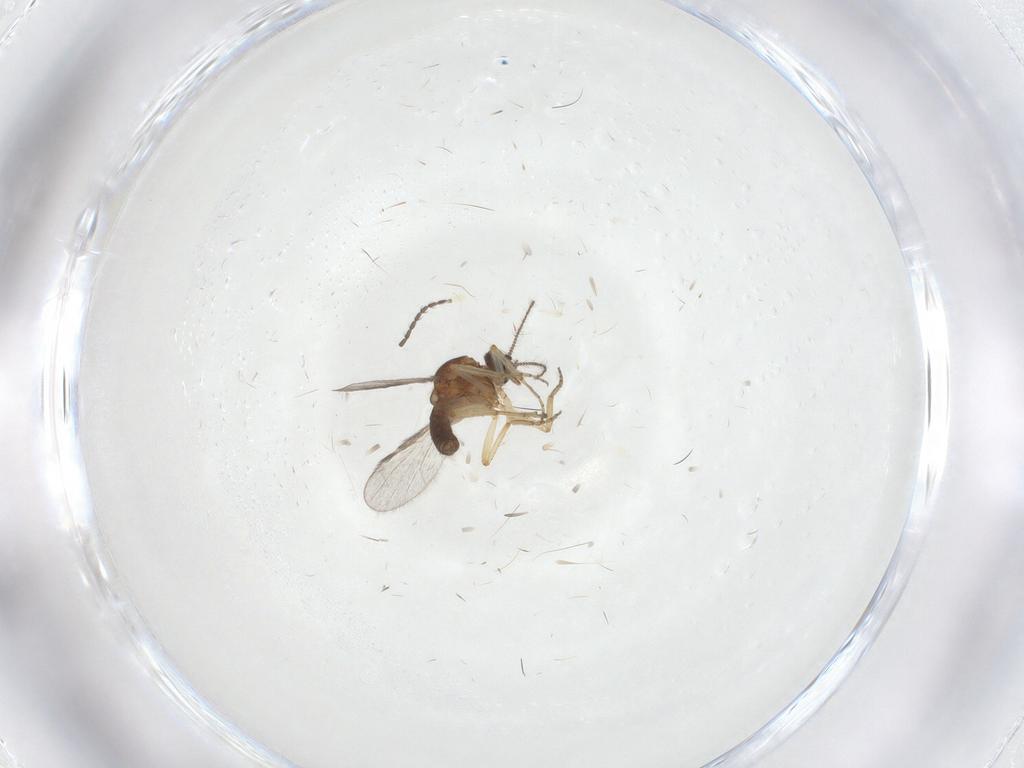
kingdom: Animalia
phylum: Arthropoda
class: Insecta
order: Diptera
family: Ceratopogonidae
